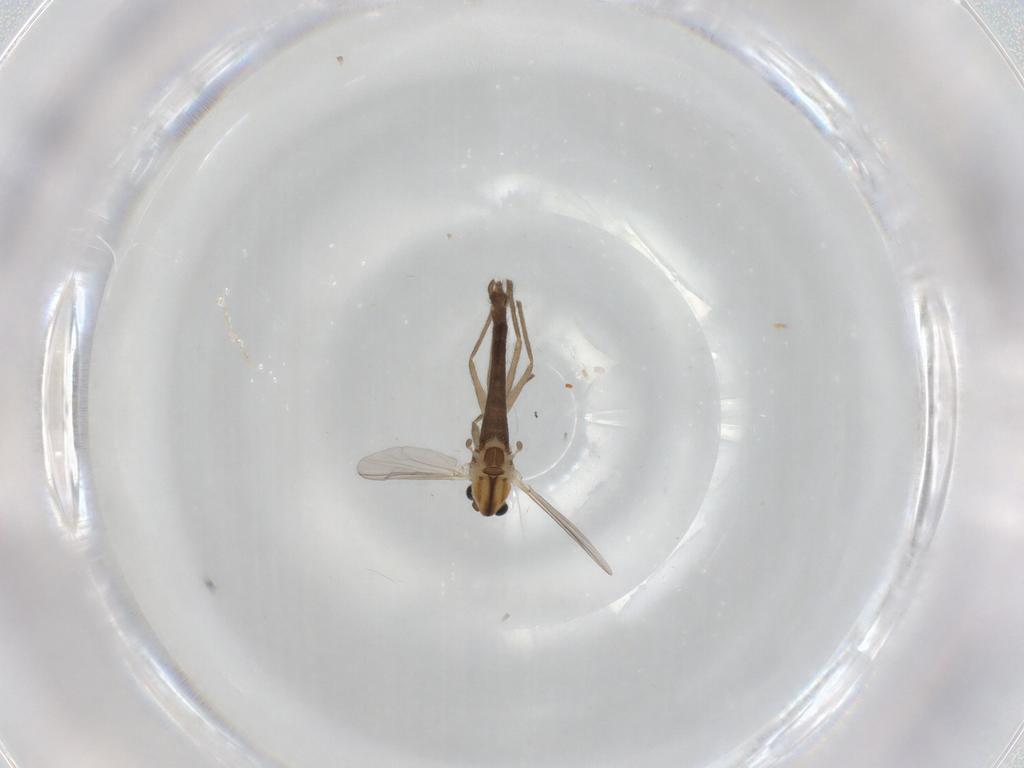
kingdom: Animalia
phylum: Arthropoda
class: Insecta
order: Diptera
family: Chironomidae
